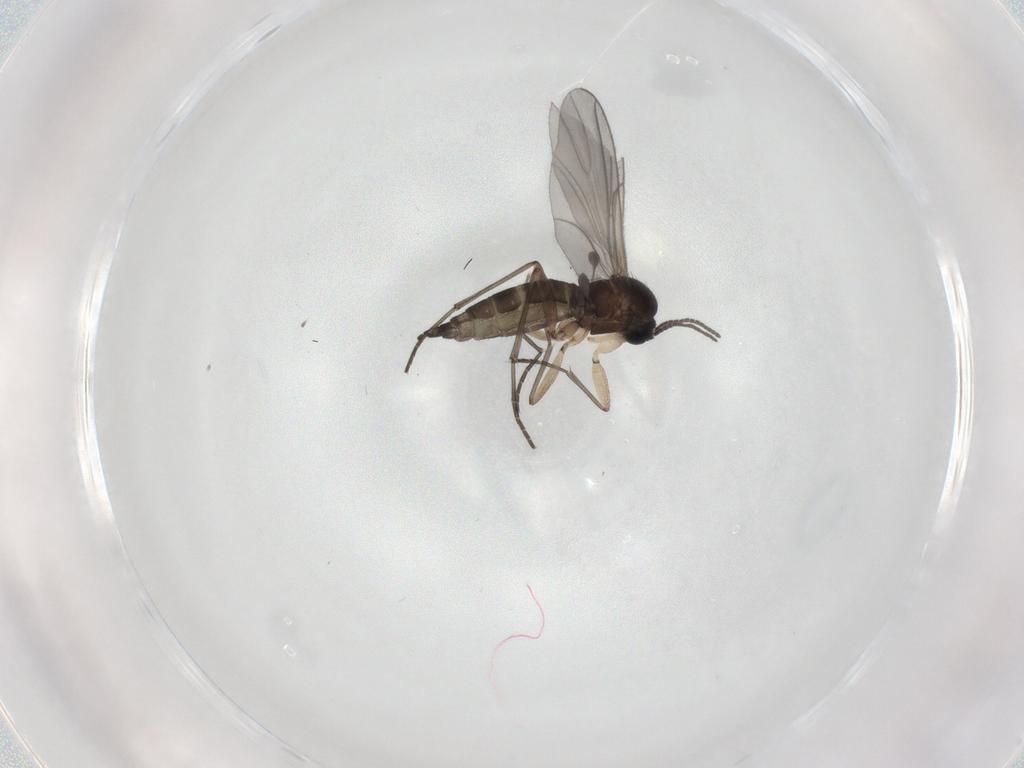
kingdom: Animalia
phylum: Arthropoda
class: Insecta
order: Diptera
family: Sciaridae
